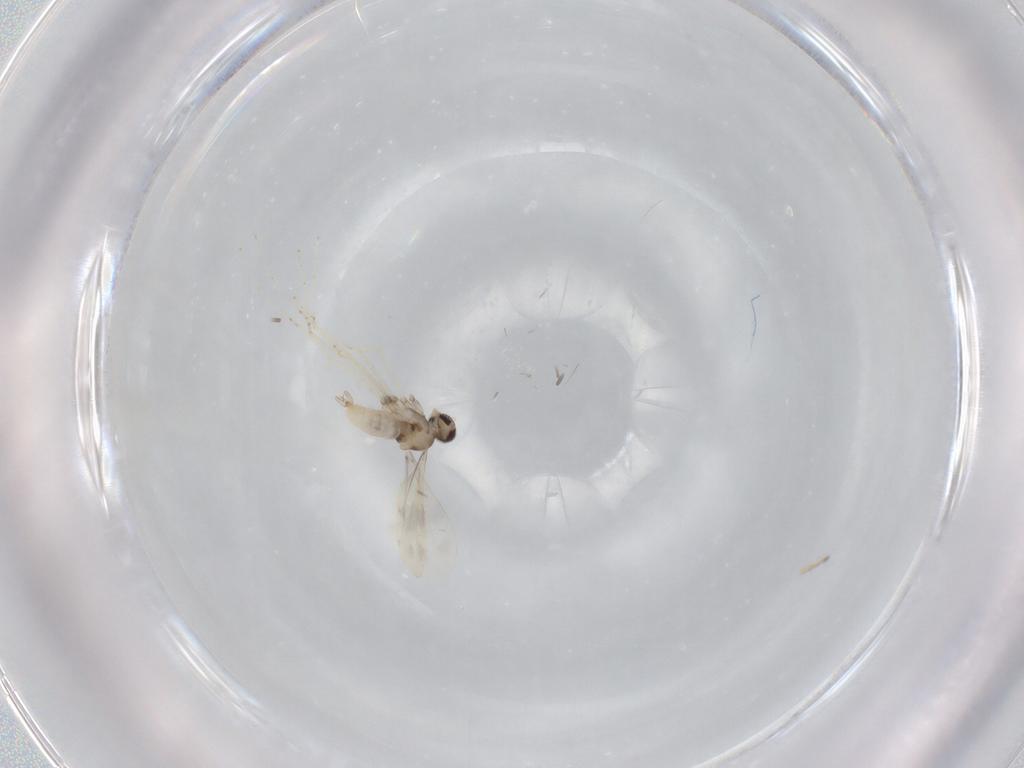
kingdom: Animalia
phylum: Arthropoda
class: Insecta
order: Diptera
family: Cecidomyiidae
